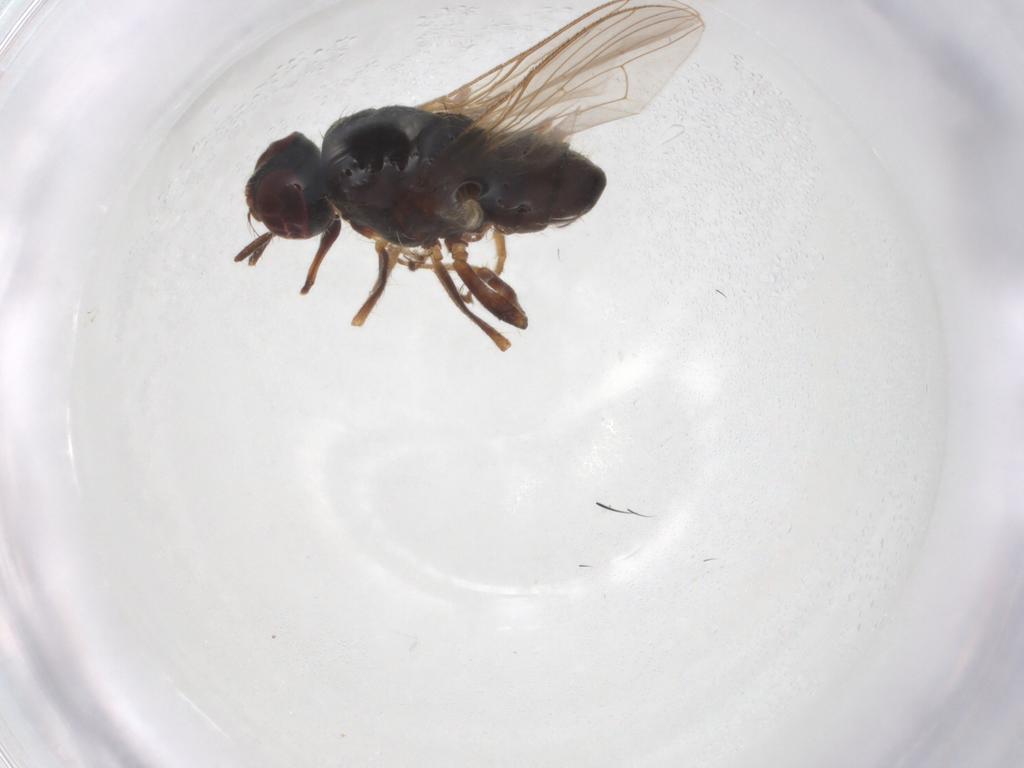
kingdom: Animalia
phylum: Arthropoda
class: Insecta
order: Diptera
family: Muscidae
